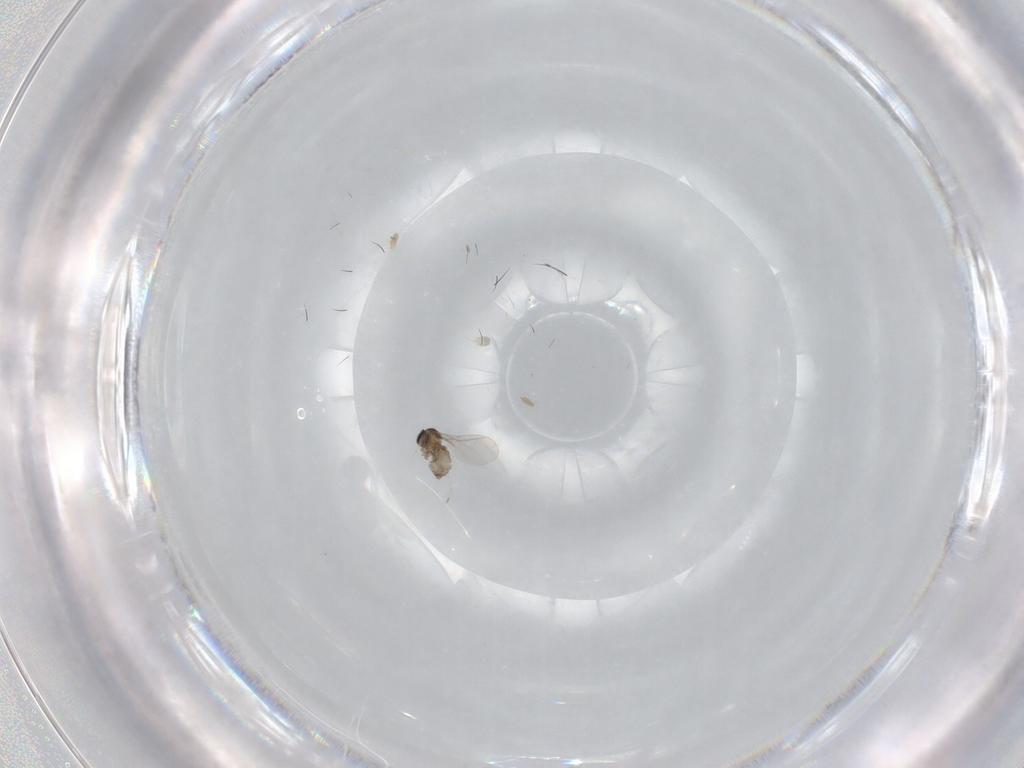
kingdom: Animalia
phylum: Arthropoda
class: Insecta
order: Diptera
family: Cecidomyiidae
